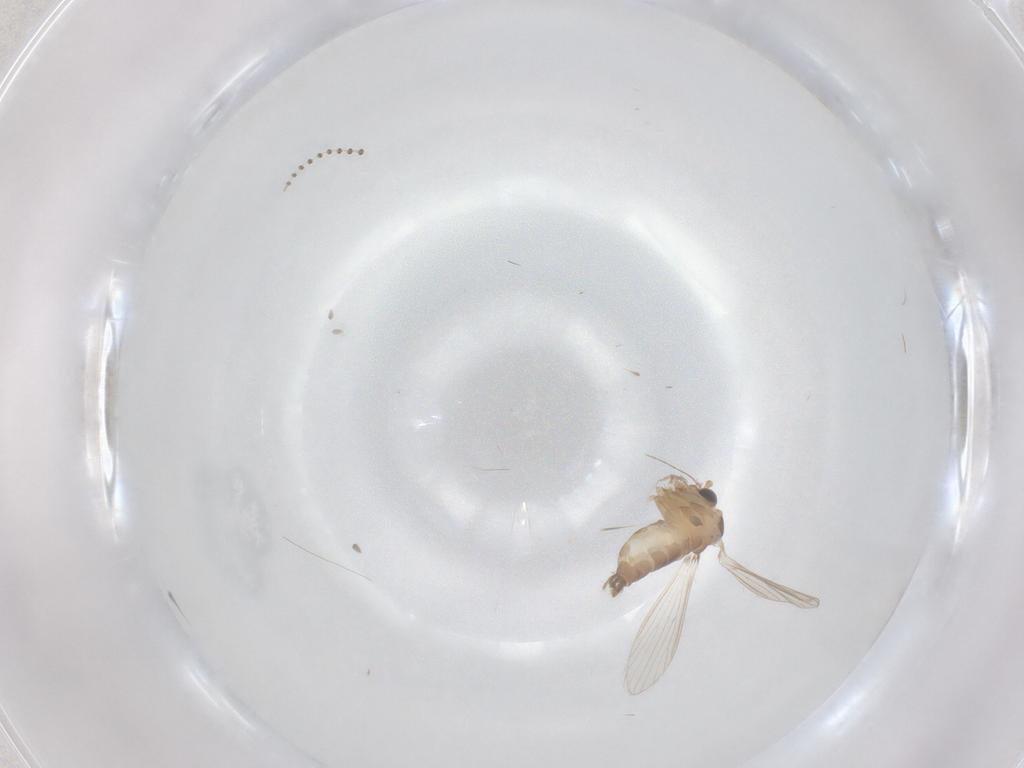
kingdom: Animalia
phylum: Arthropoda
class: Insecta
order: Diptera
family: Psychodidae
